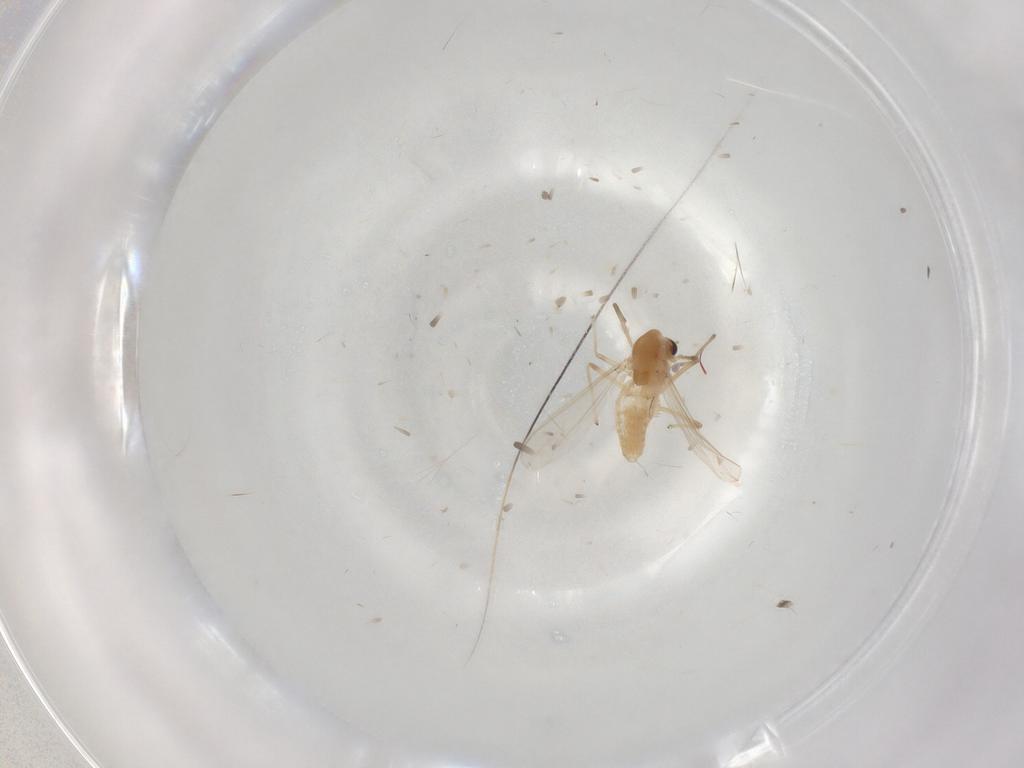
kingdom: Animalia
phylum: Arthropoda
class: Insecta
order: Diptera
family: Chironomidae
